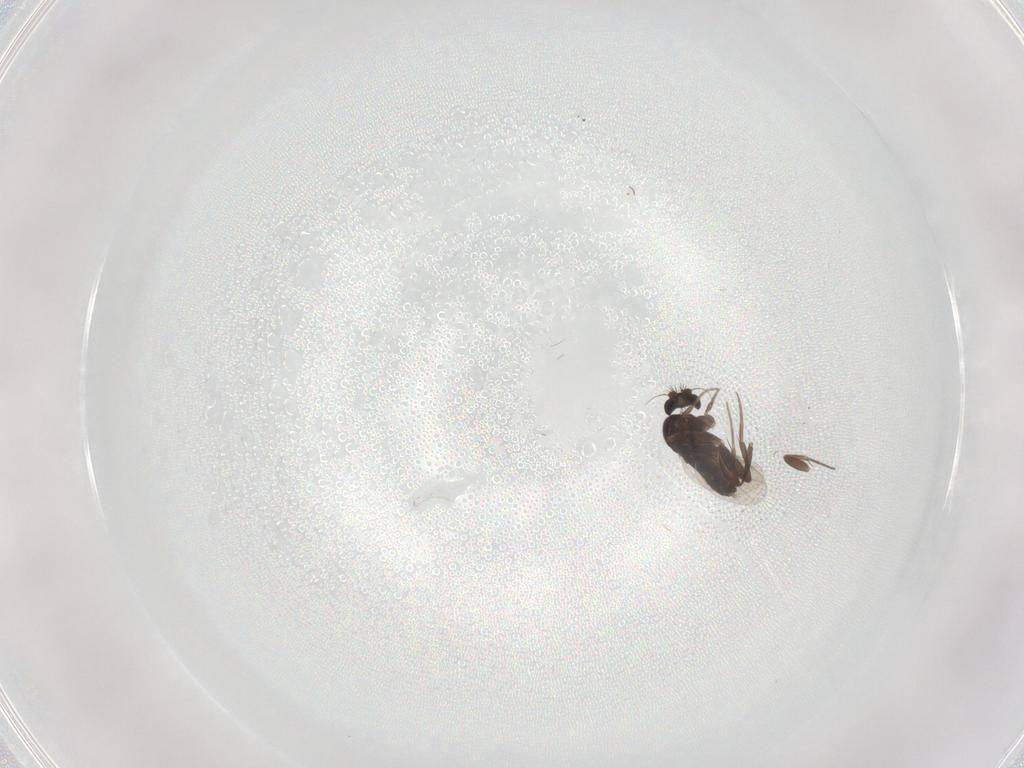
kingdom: Animalia
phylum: Arthropoda
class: Insecta
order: Diptera
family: Phoridae
